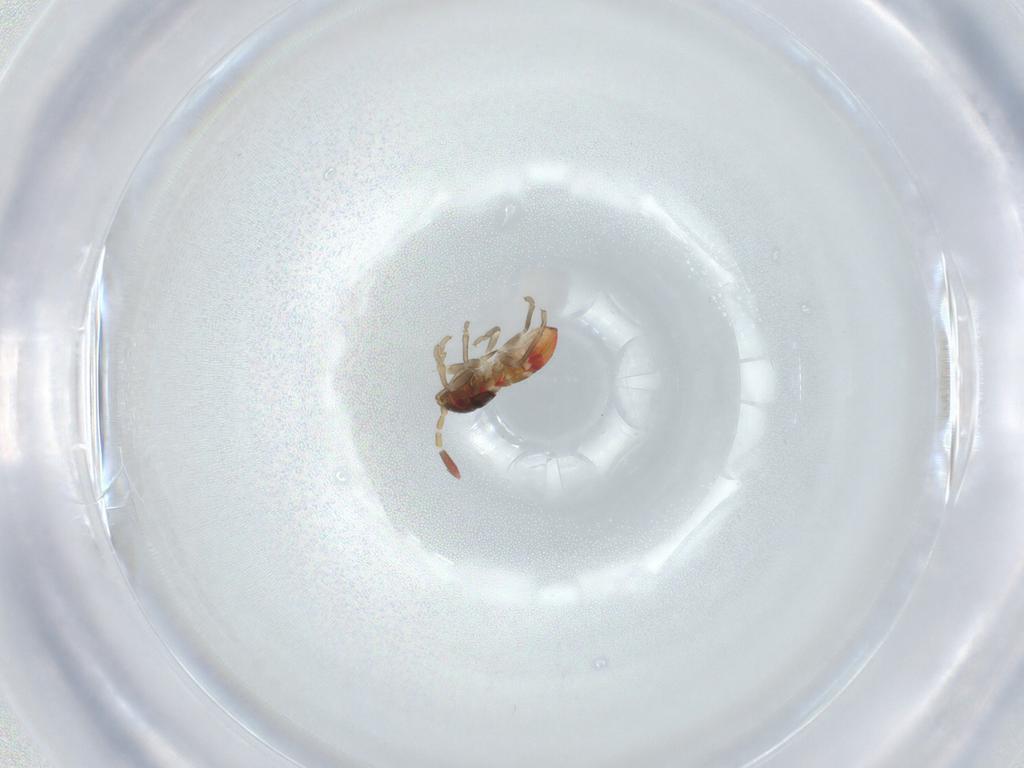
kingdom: Animalia
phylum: Arthropoda
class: Insecta
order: Hemiptera
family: Rhyparochromidae
